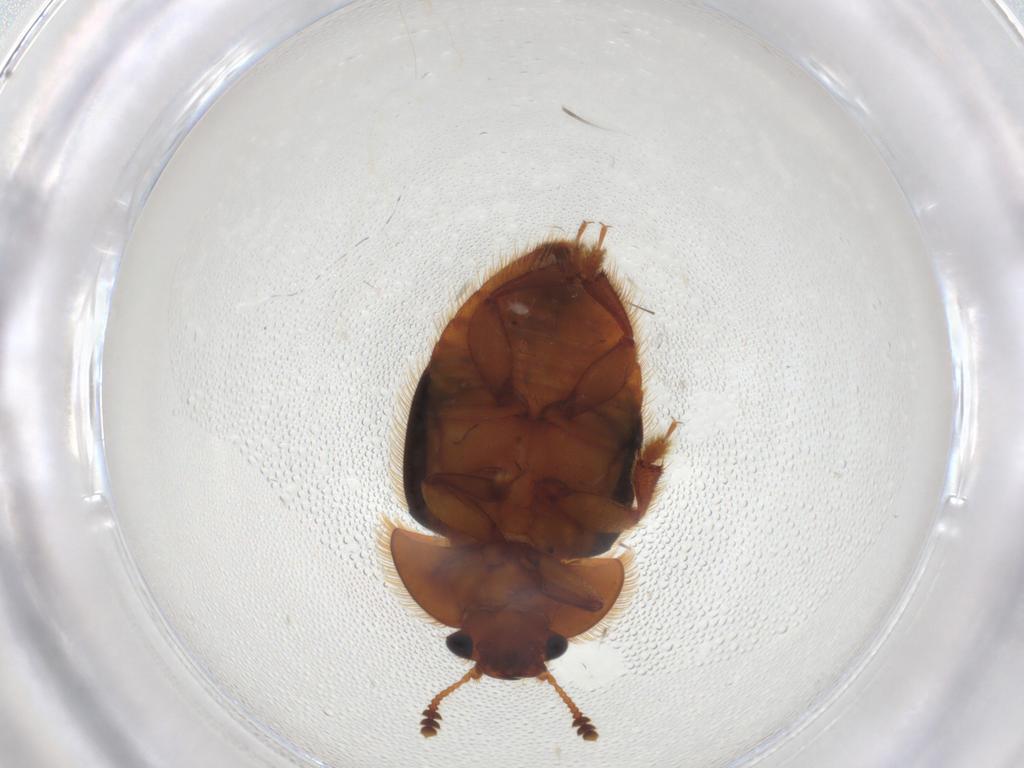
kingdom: Animalia
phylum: Arthropoda
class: Insecta
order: Coleoptera
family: Nitidulidae
